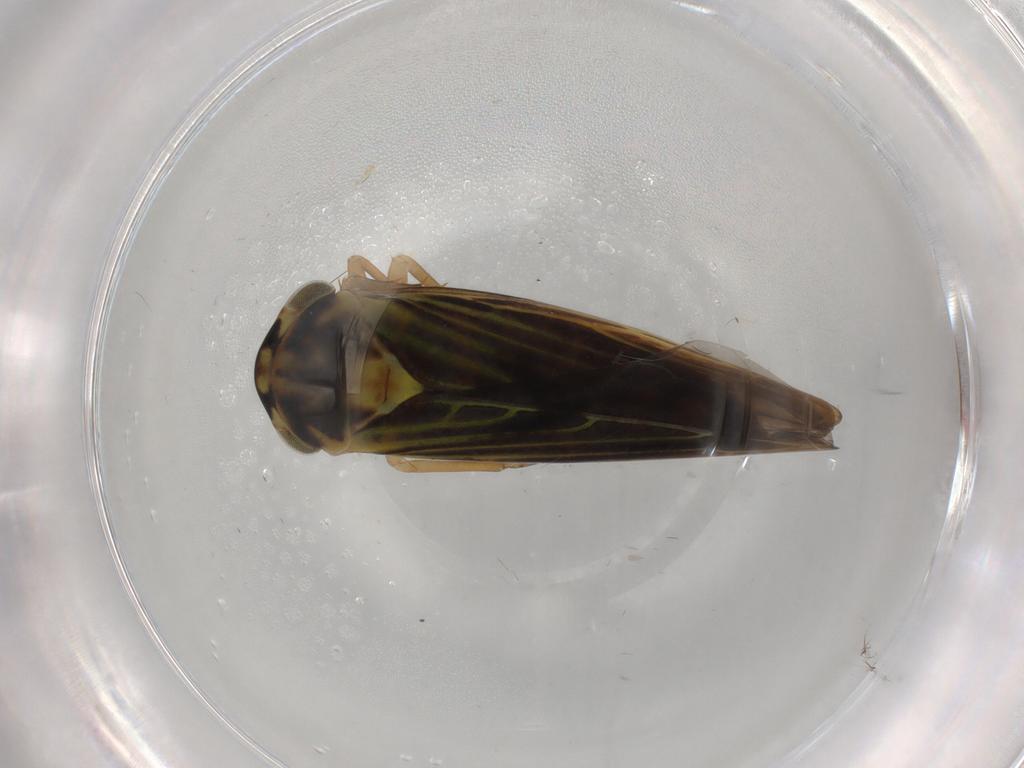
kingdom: Animalia
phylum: Arthropoda
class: Insecta
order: Hemiptera
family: Cicadellidae
